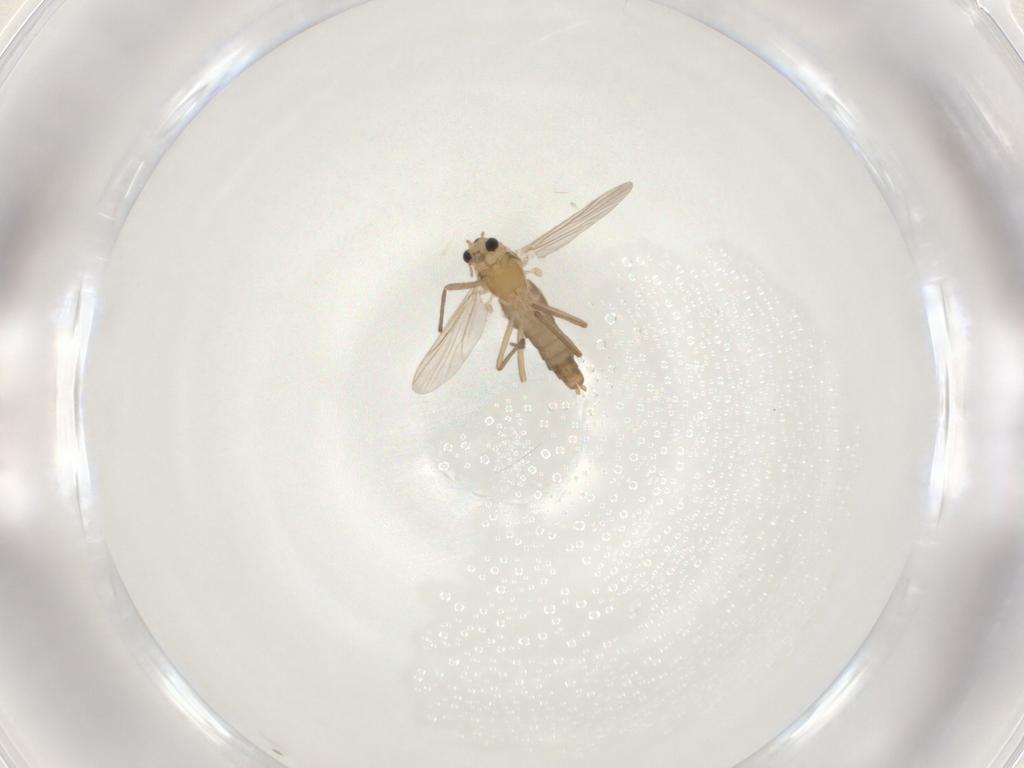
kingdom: Animalia
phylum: Arthropoda
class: Insecta
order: Diptera
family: Chironomidae
